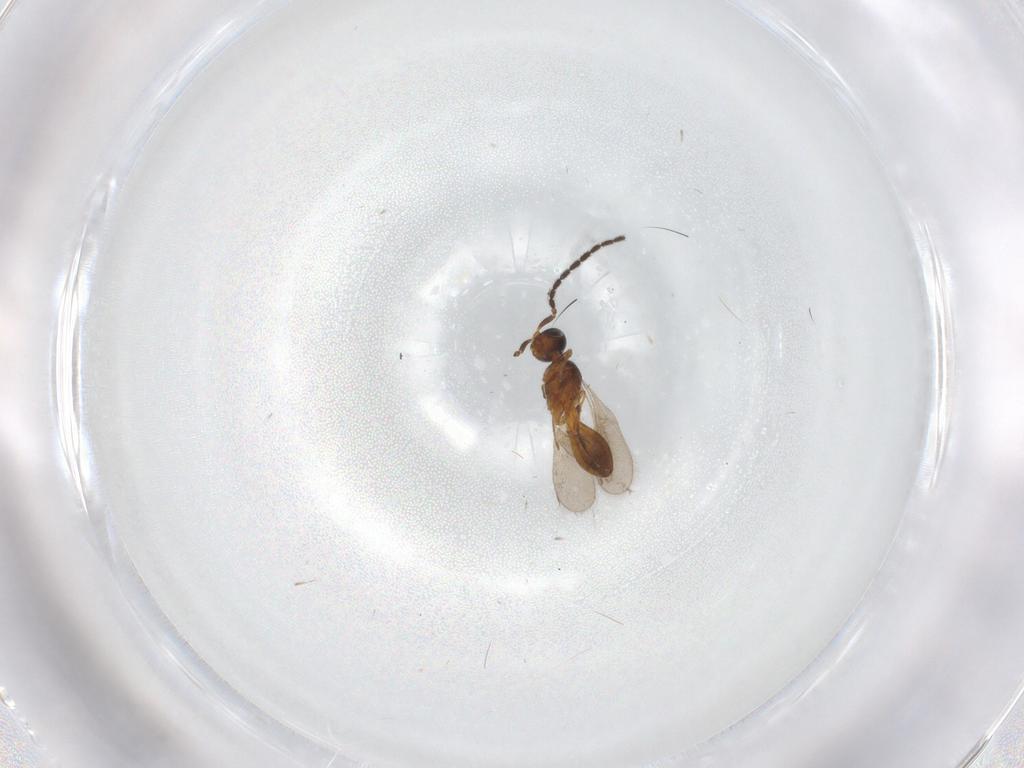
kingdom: Animalia
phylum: Arthropoda
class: Insecta
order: Hymenoptera
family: Scelionidae
